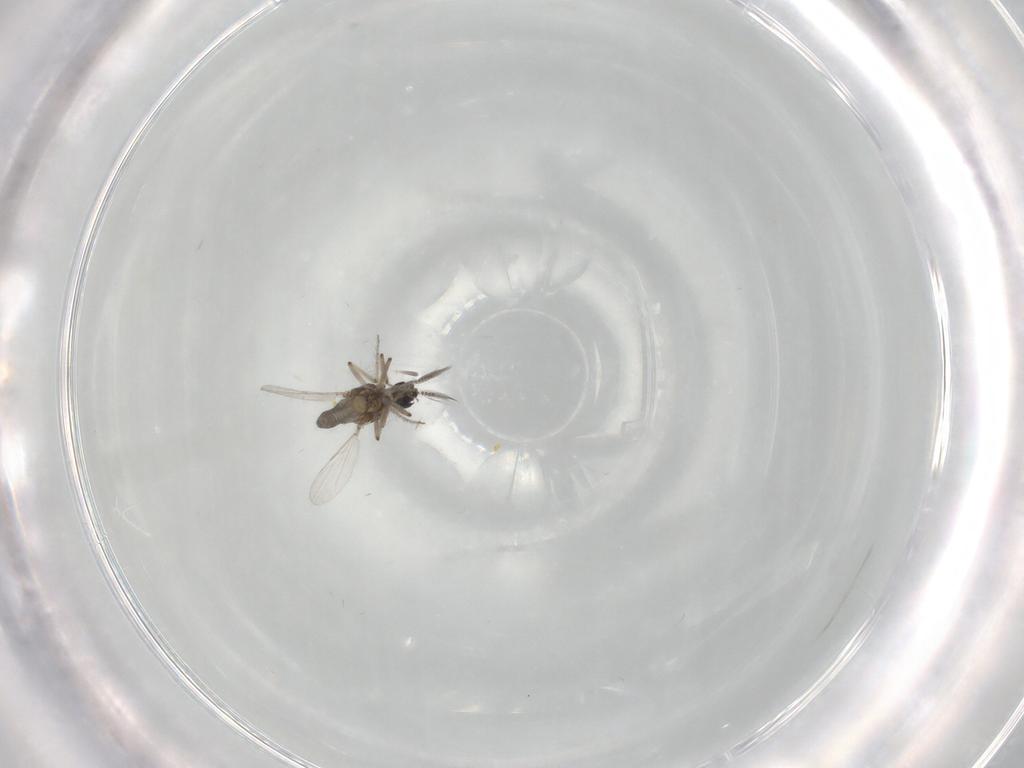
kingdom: Animalia
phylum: Arthropoda
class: Insecta
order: Diptera
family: Ceratopogonidae
